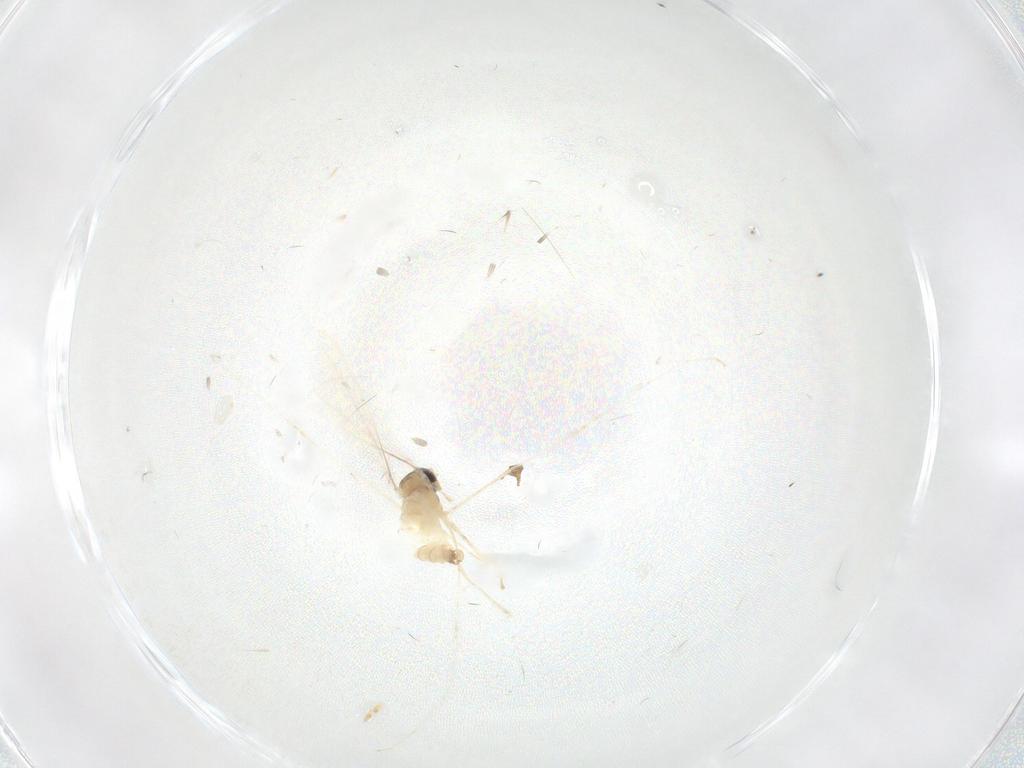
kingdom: Animalia
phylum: Arthropoda
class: Insecta
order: Diptera
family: Cecidomyiidae
